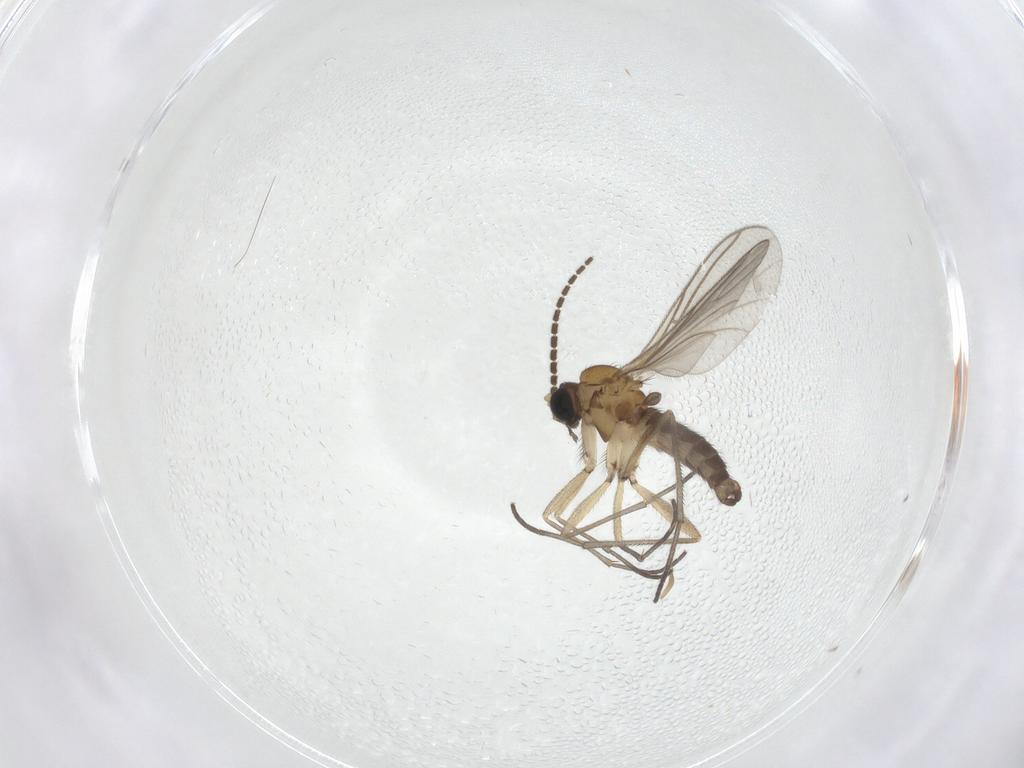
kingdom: Animalia
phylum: Arthropoda
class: Insecta
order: Diptera
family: Sciaridae
